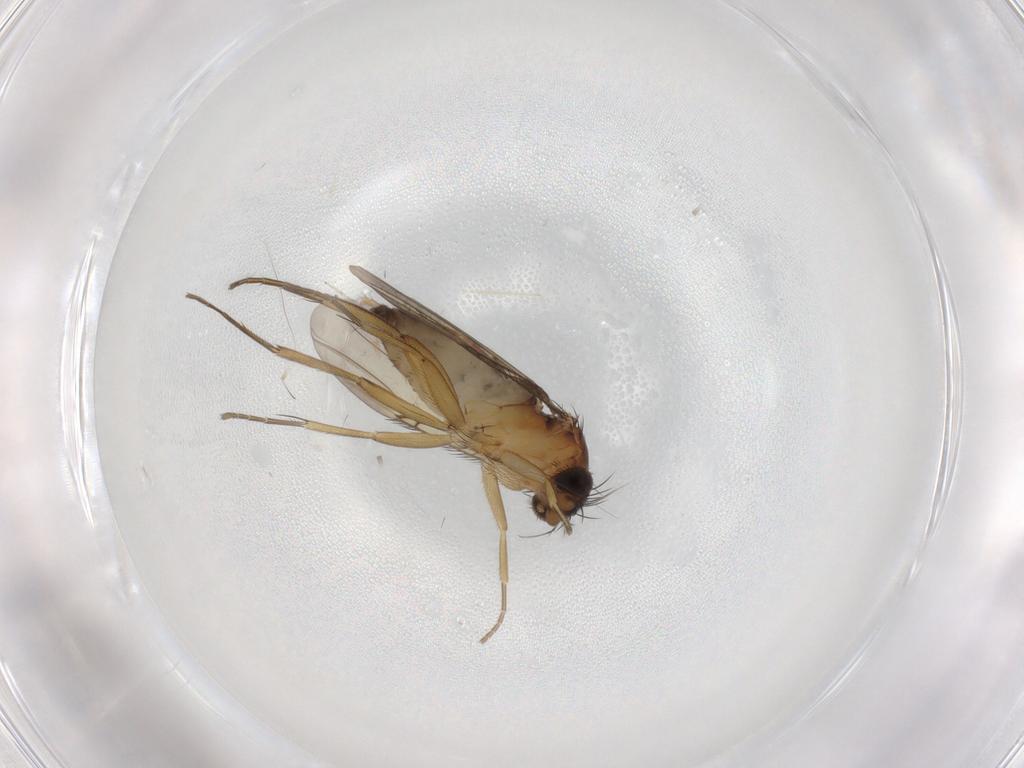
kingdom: Animalia
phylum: Arthropoda
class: Insecta
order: Diptera
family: Phoridae
